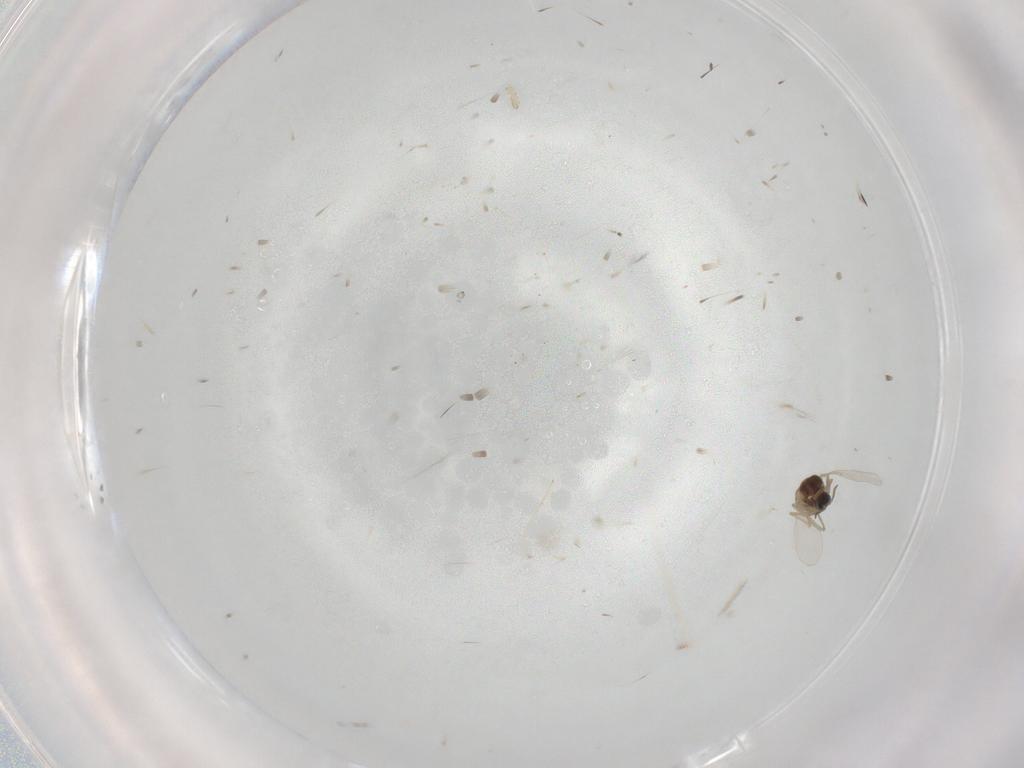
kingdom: Animalia
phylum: Arthropoda
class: Insecta
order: Diptera
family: Cecidomyiidae
